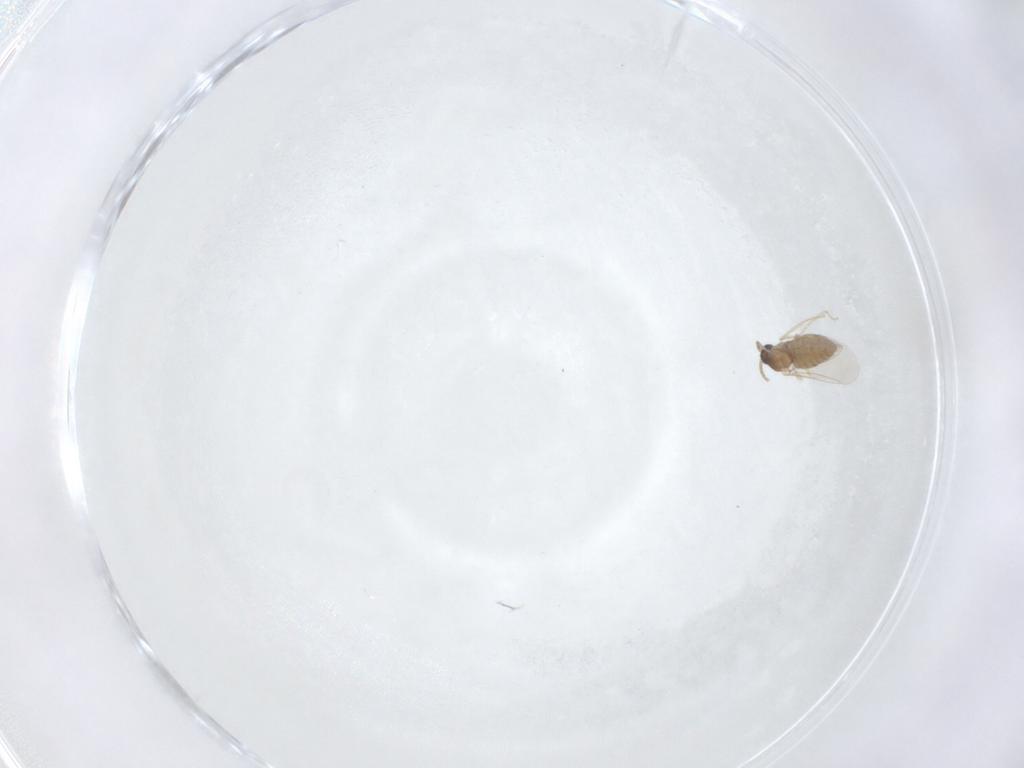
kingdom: Animalia
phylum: Arthropoda
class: Insecta
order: Diptera
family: Cecidomyiidae
